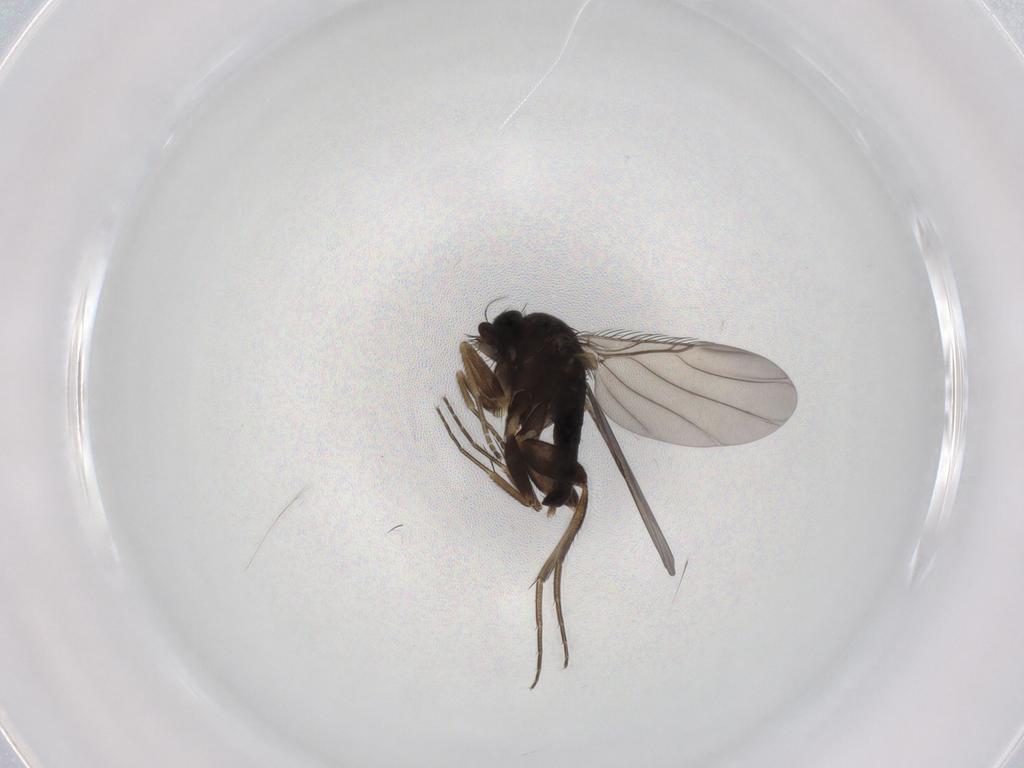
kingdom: Animalia
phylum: Arthropoda
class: Insecta
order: Diptera
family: Phoridae
